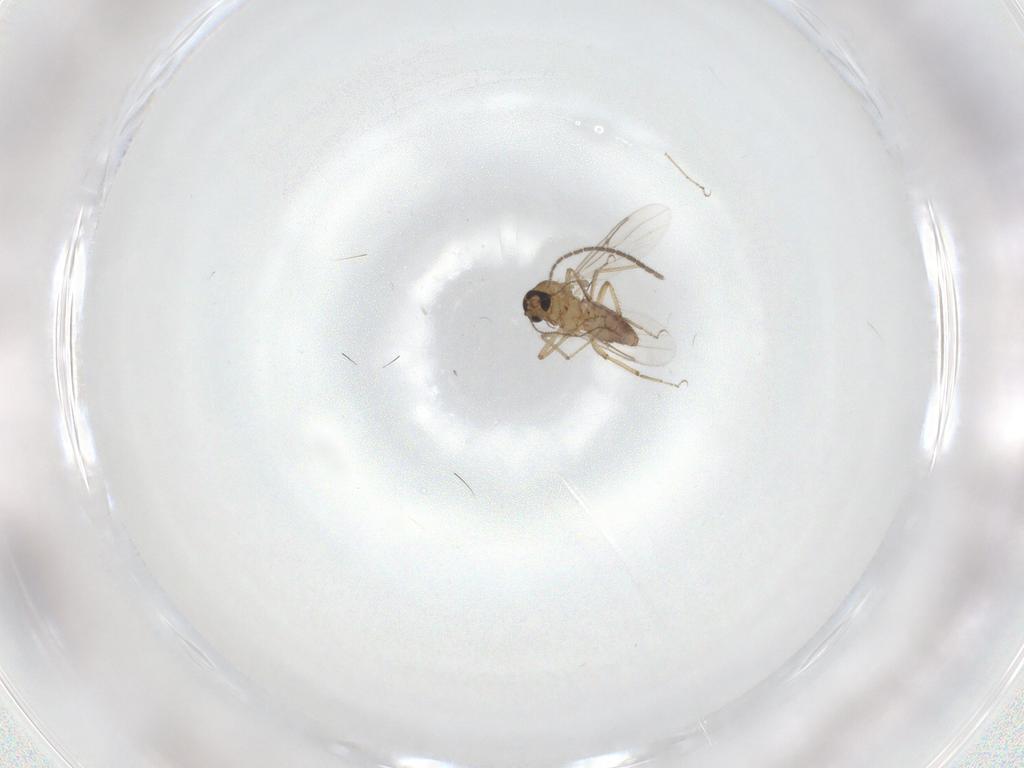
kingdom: Animalia
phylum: Arthropoda
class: Insecta
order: Diptera
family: Sciaridae
